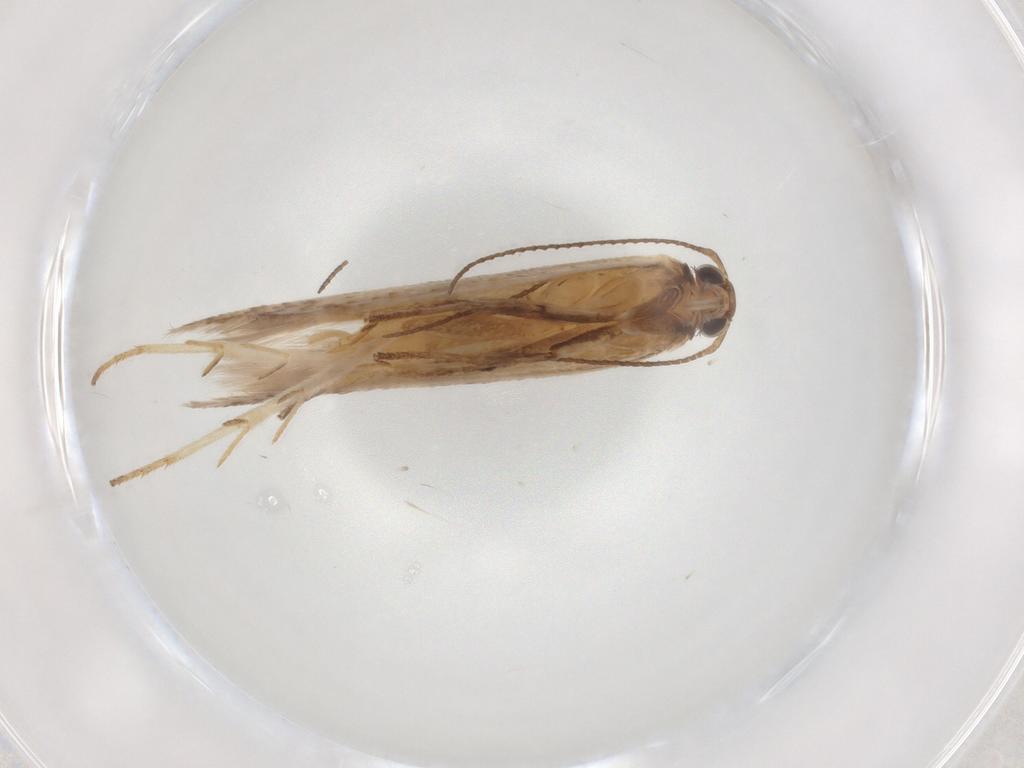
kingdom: Animalia
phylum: Arthropoda
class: Insecta
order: Lepidoptera
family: Gelechiidae
